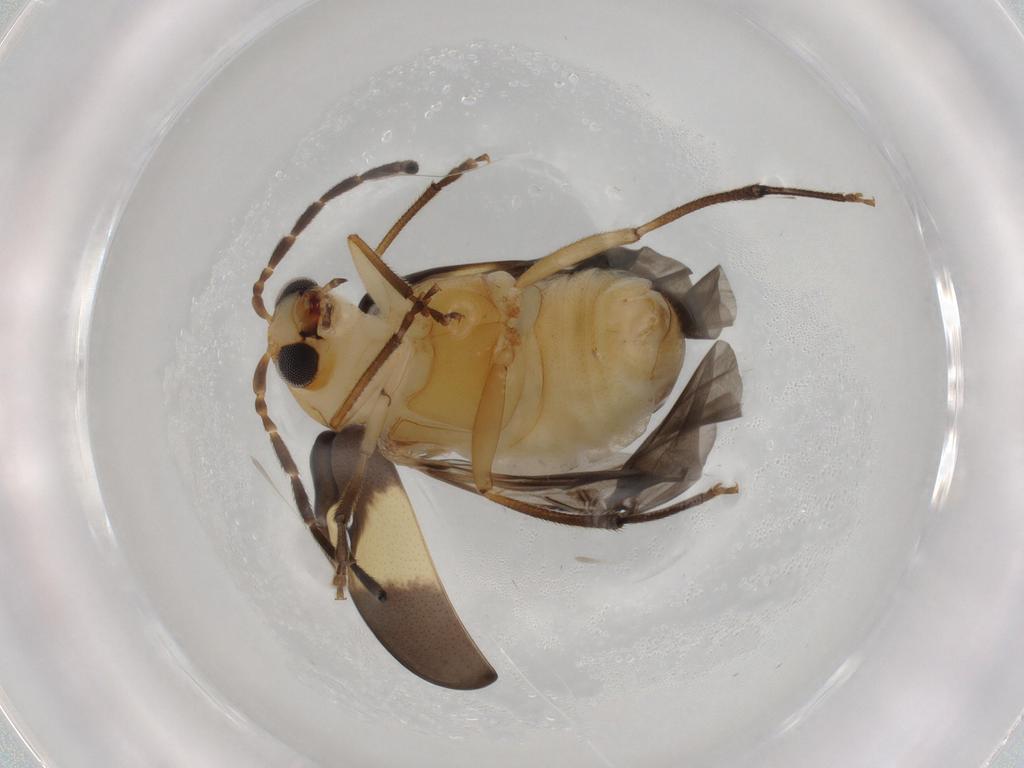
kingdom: Animalia
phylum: Arthropoda
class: Insecta
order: Coleoptera
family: Chrysomelidae
